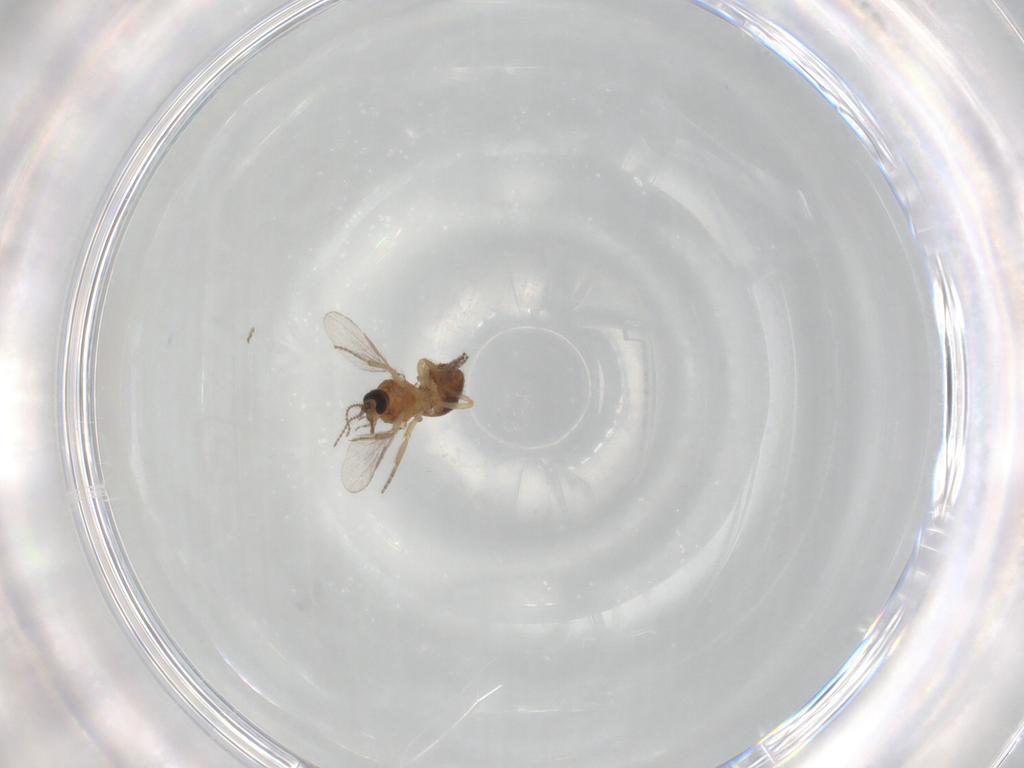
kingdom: Animalia
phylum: Arthropoda
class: Insecta
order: Diptera
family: Ceratopogonidae
